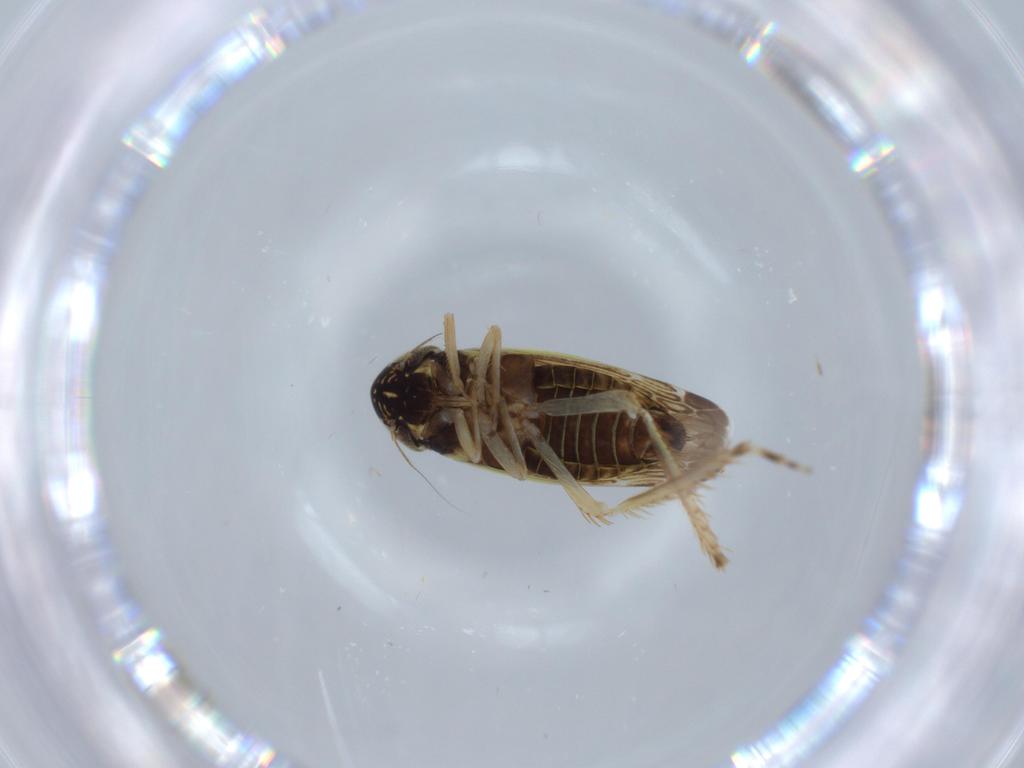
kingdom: Animalia
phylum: Arthropoda
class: Insecta
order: Hemiptera
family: Cicadellidae
